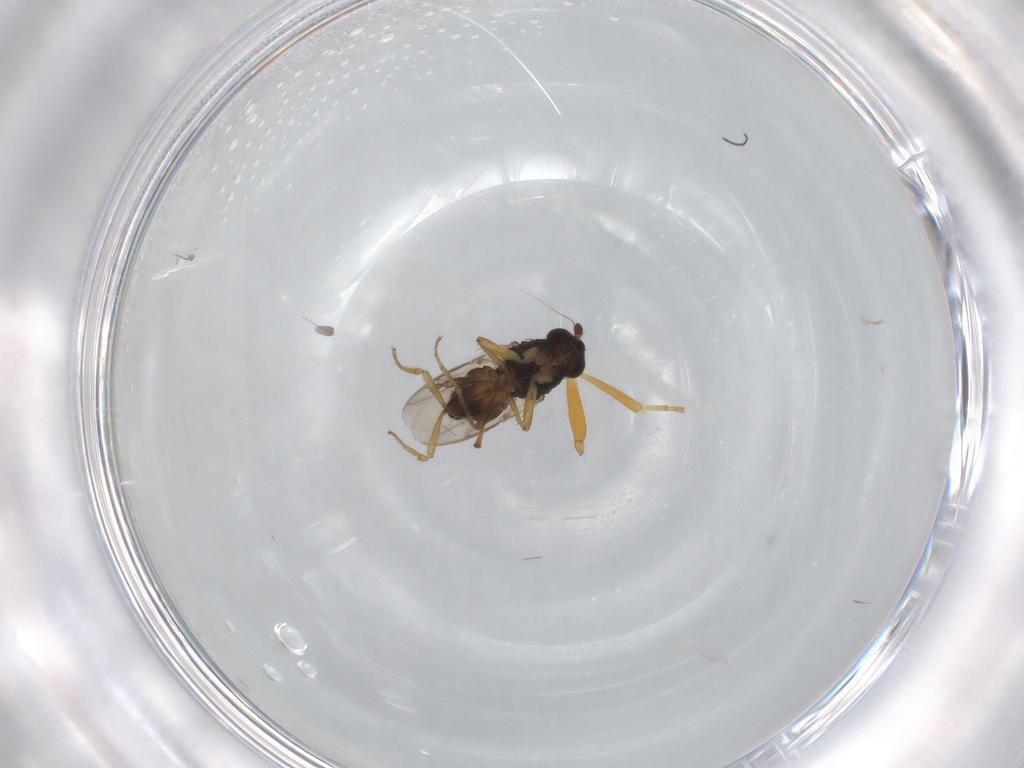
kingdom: Animalia
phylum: Arthropoda
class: Insecta
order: Diptera
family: Sphaeroceridae
